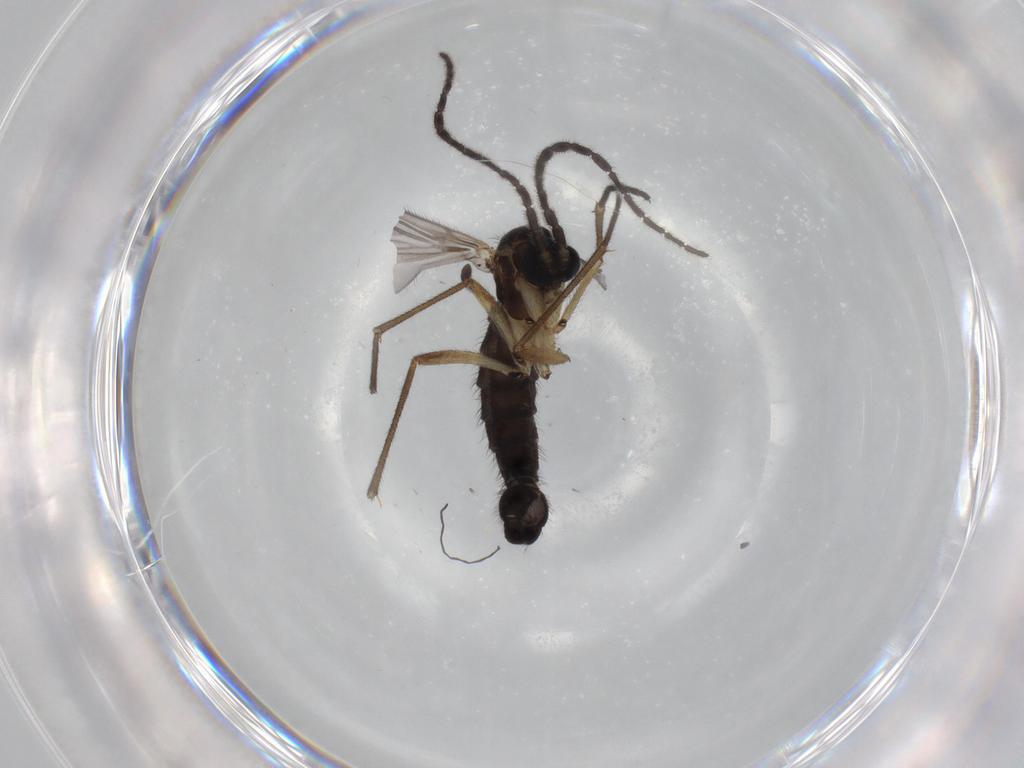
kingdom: Animalia
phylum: Arthropoda
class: Insecta
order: Diptera
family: Sciaridae
